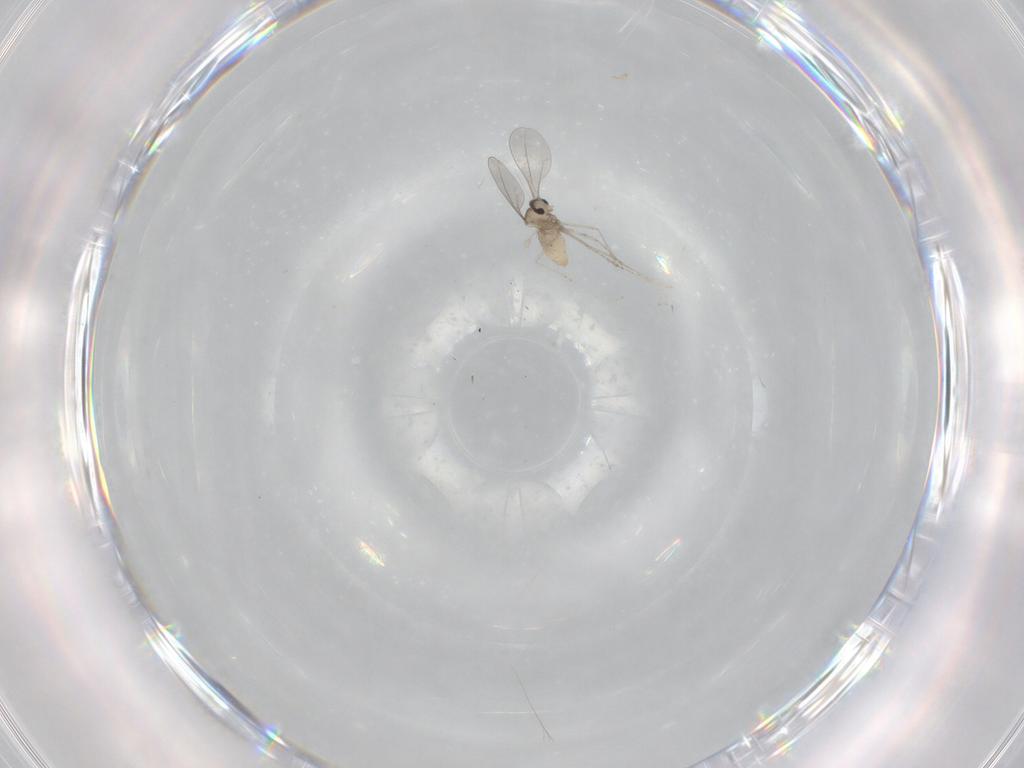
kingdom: Animalia
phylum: Arthropoda
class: Insecta
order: Diptera
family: Cecidomyiidae
